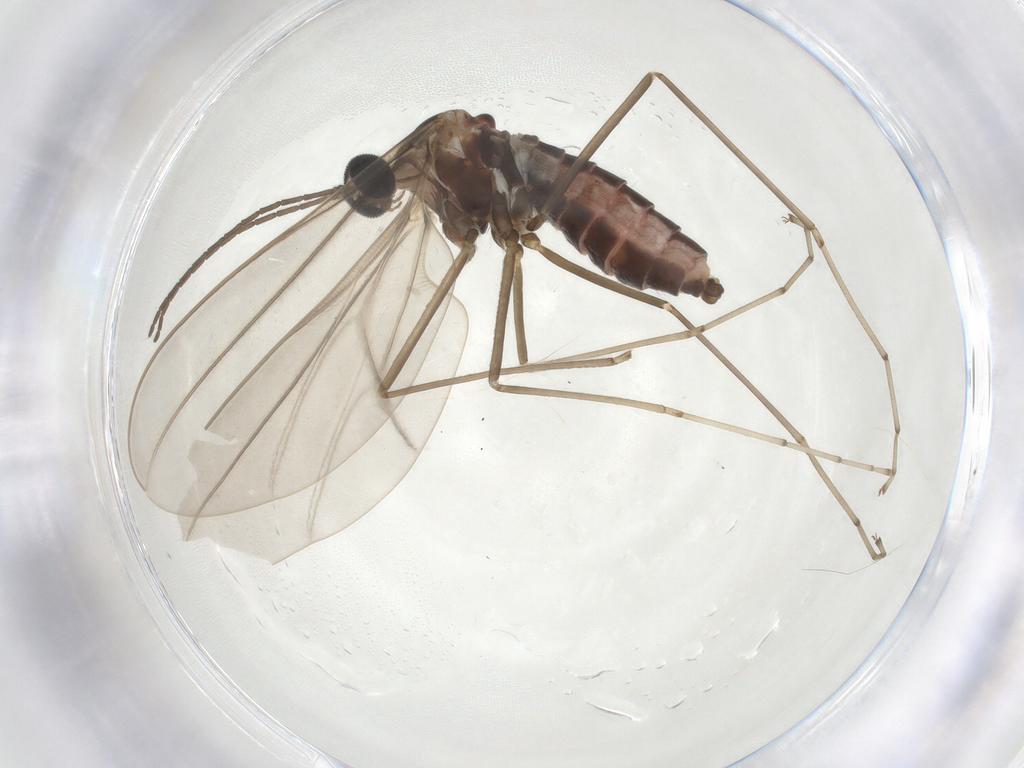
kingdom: Animalia
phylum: Arthropoda
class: Insecta
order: Diptera
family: Cecidomyiidae
